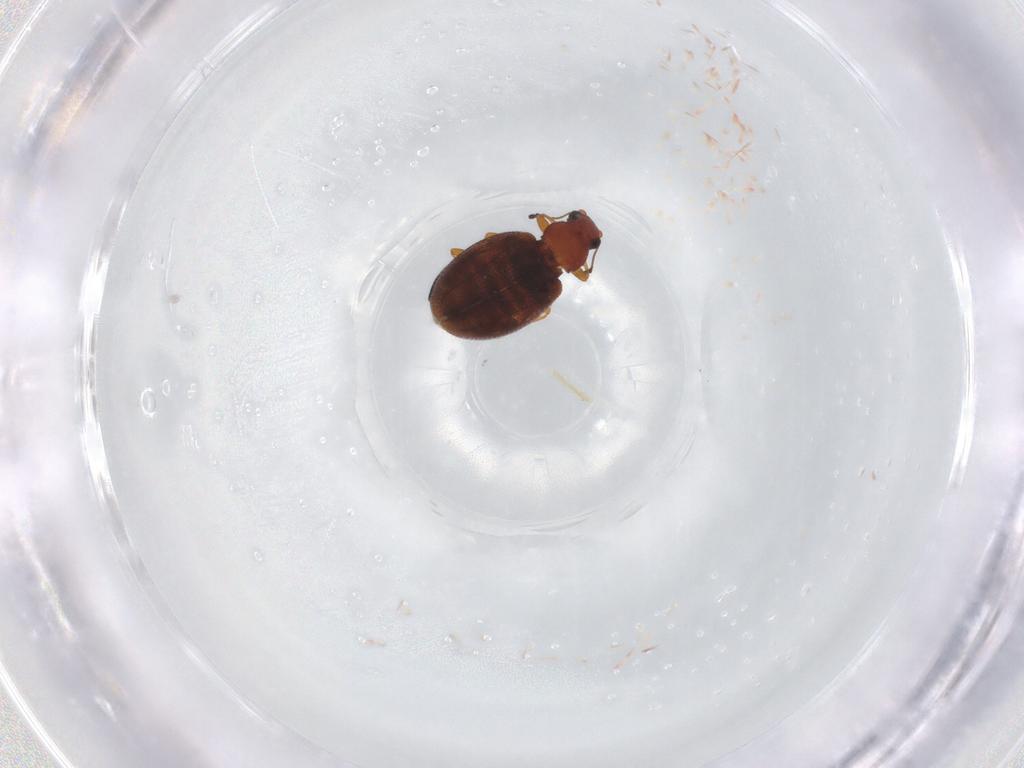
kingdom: Animalia
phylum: Arthropoda
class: Insecta
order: Coleoptera
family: Latridiidae
